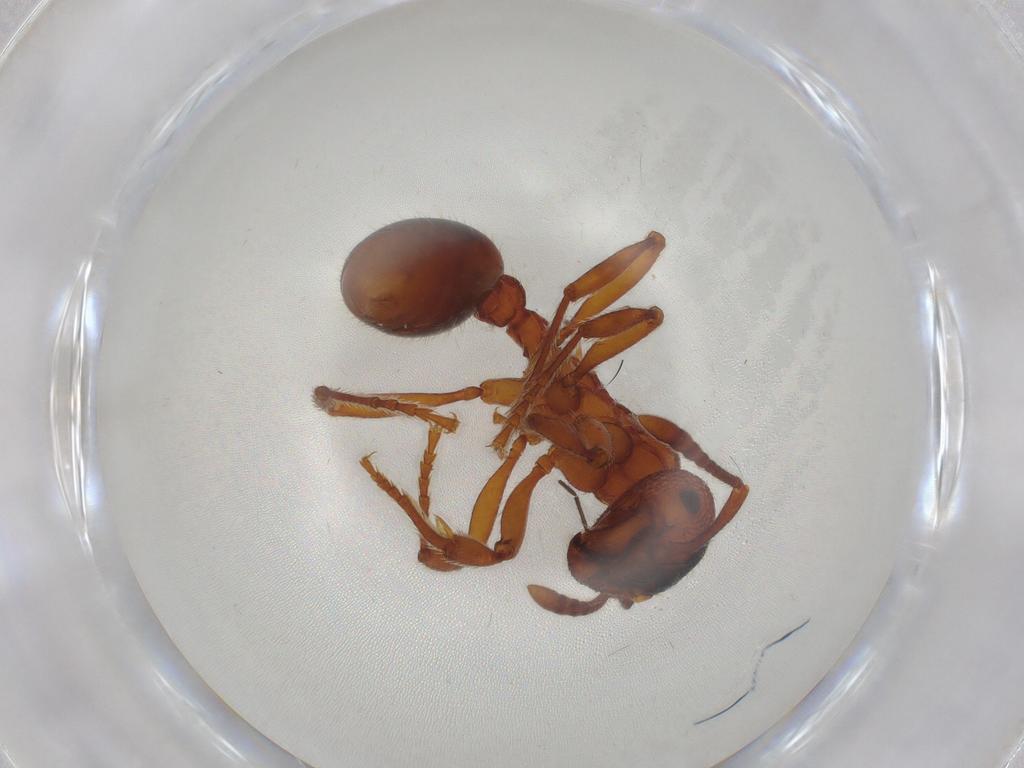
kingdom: Animalia
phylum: Arthropoda
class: Insecta
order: Hymenoptera
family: Formicidae
